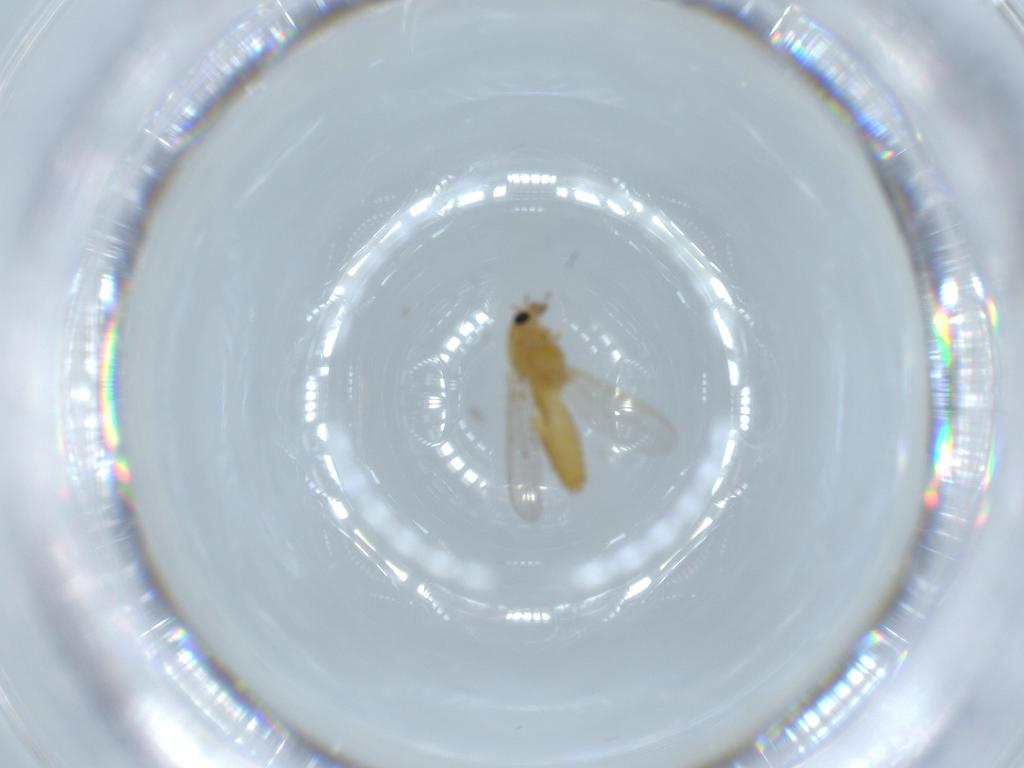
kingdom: Animalia
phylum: Arthropoda
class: Insecta
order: Diptera
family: Chironomidae
